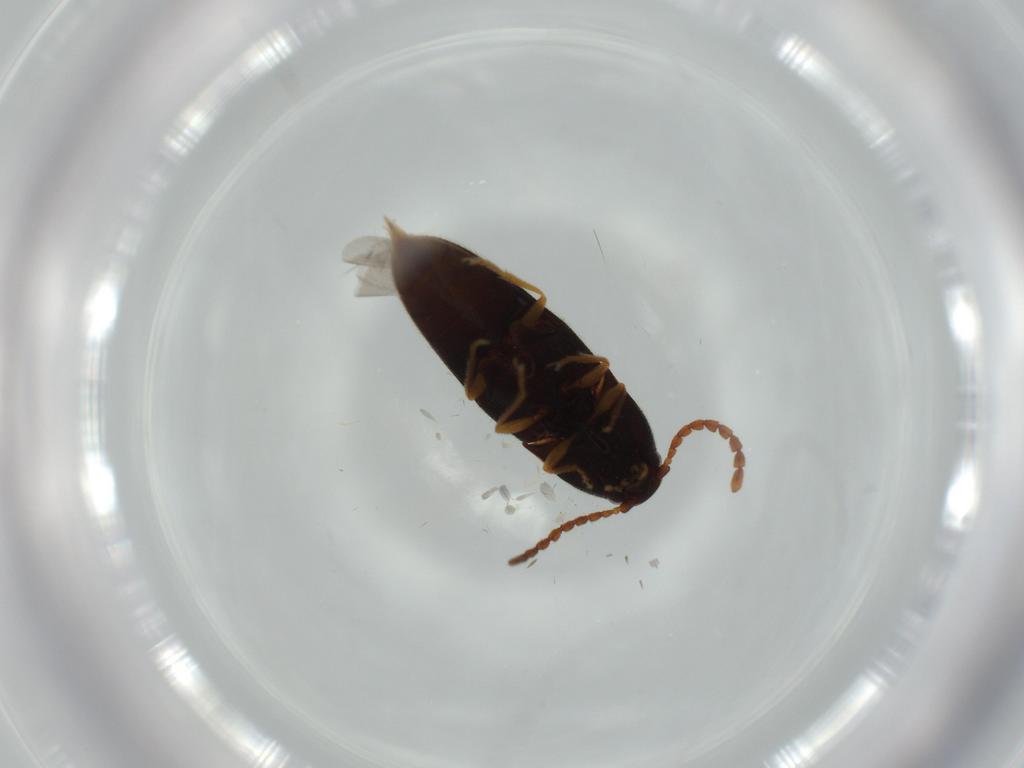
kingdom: Animalia
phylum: Arthropoda
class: Insecta
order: Coleoptera
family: Elateridae
